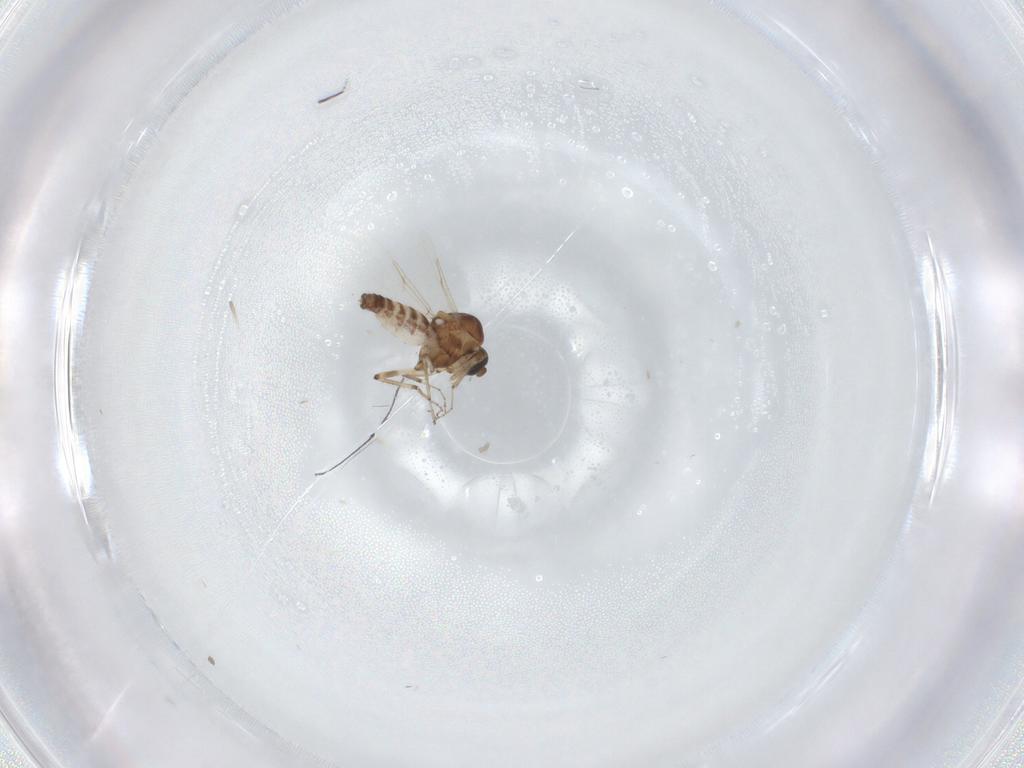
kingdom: Animalia
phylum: Arthropoda
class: Insecta
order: Diptera
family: Ceratopogonidae
